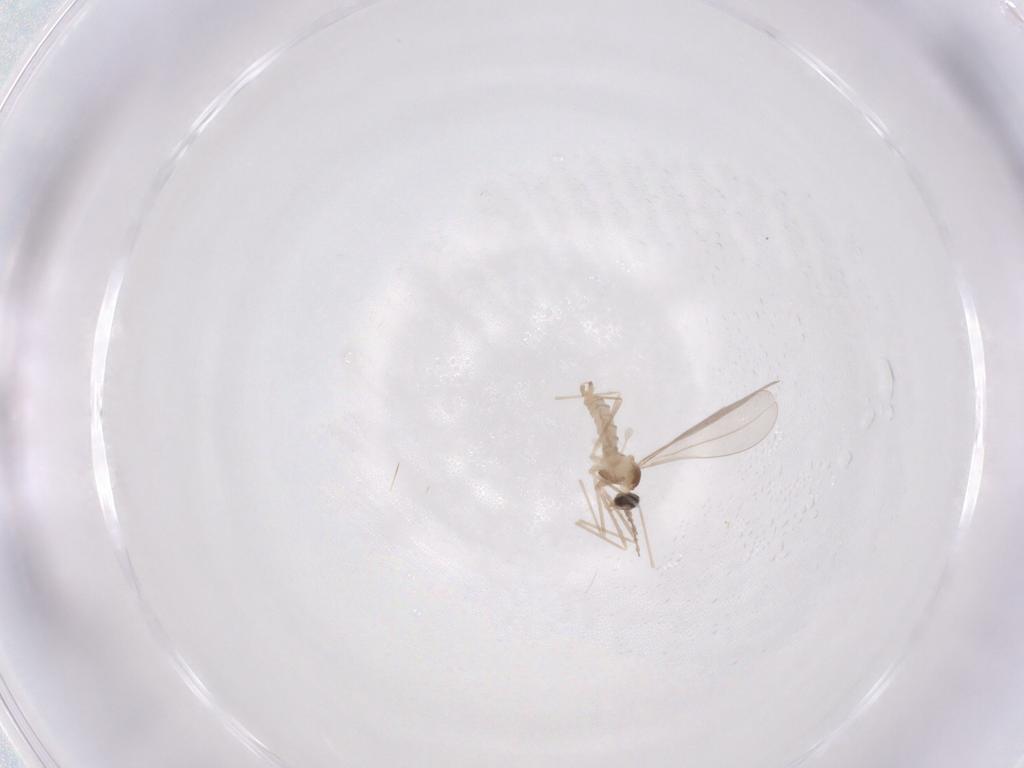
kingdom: Animalia
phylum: Arthropoda
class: Insecta
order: Diptera
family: Cecidomyiidae
